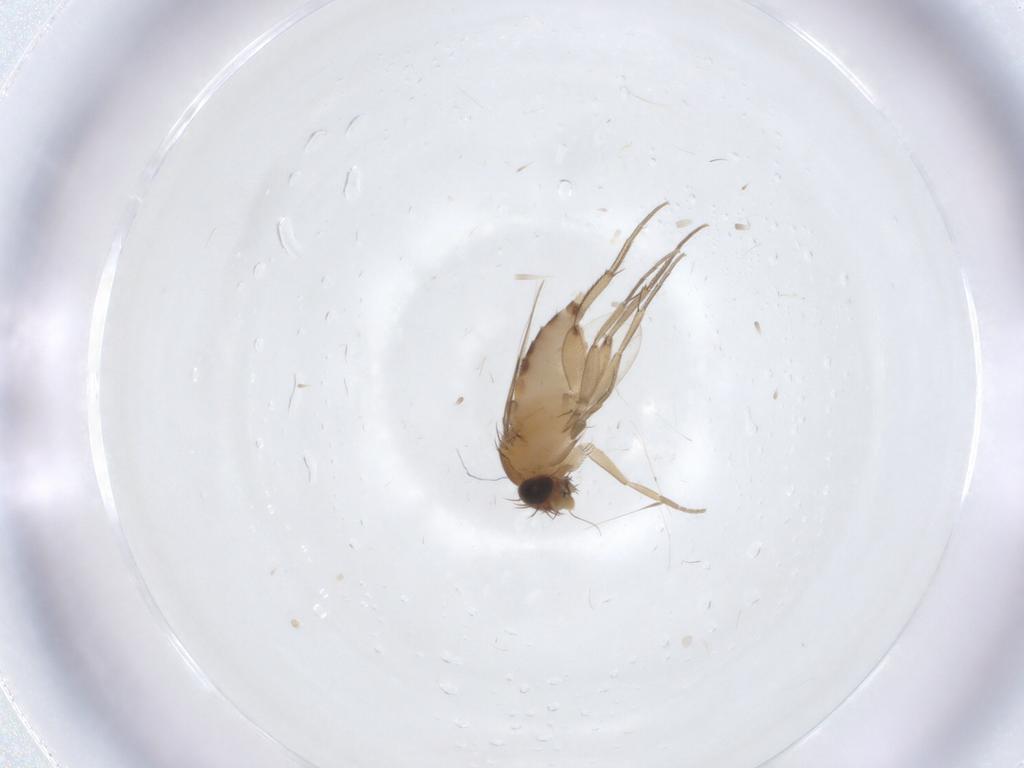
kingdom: Animalia
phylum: Arthropoda
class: Insecta
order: Diptera
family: Phoridae
